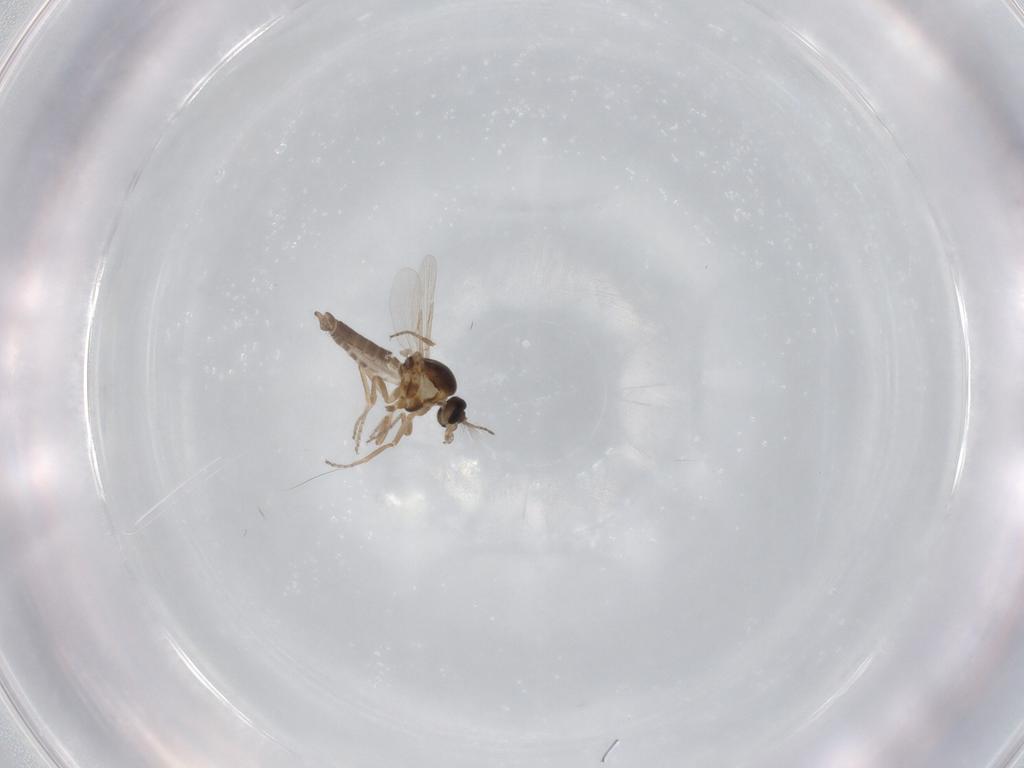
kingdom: Animalia
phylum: Arthropoda
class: Insecta
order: Diptera
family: Ceratopogonidae
